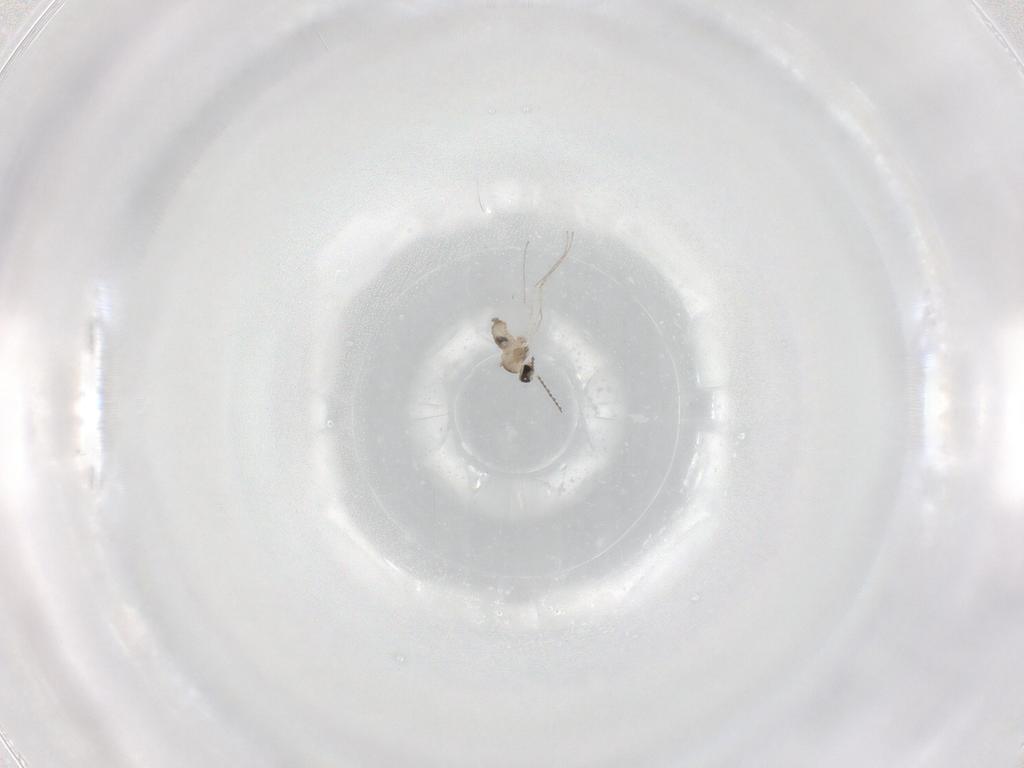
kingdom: Animalia
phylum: Arthropoda
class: Insecta
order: Diptera
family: Cecidomyiidae
